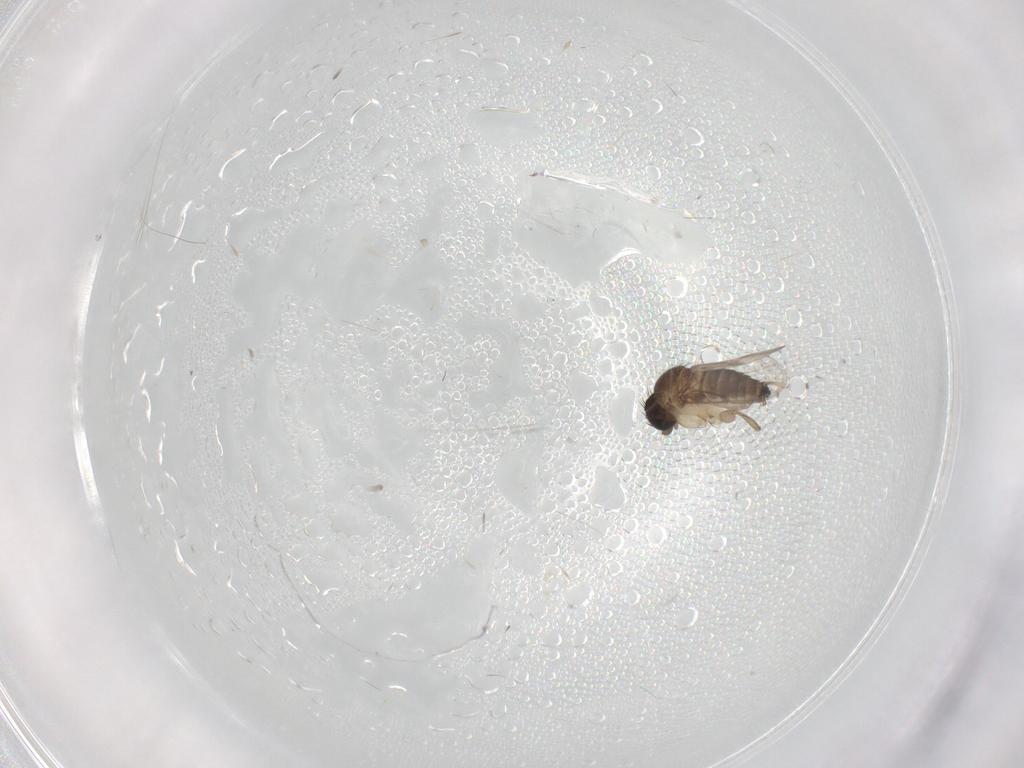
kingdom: Animalia
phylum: Arthropoda
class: Insecta
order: Diptera
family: Phoridae
